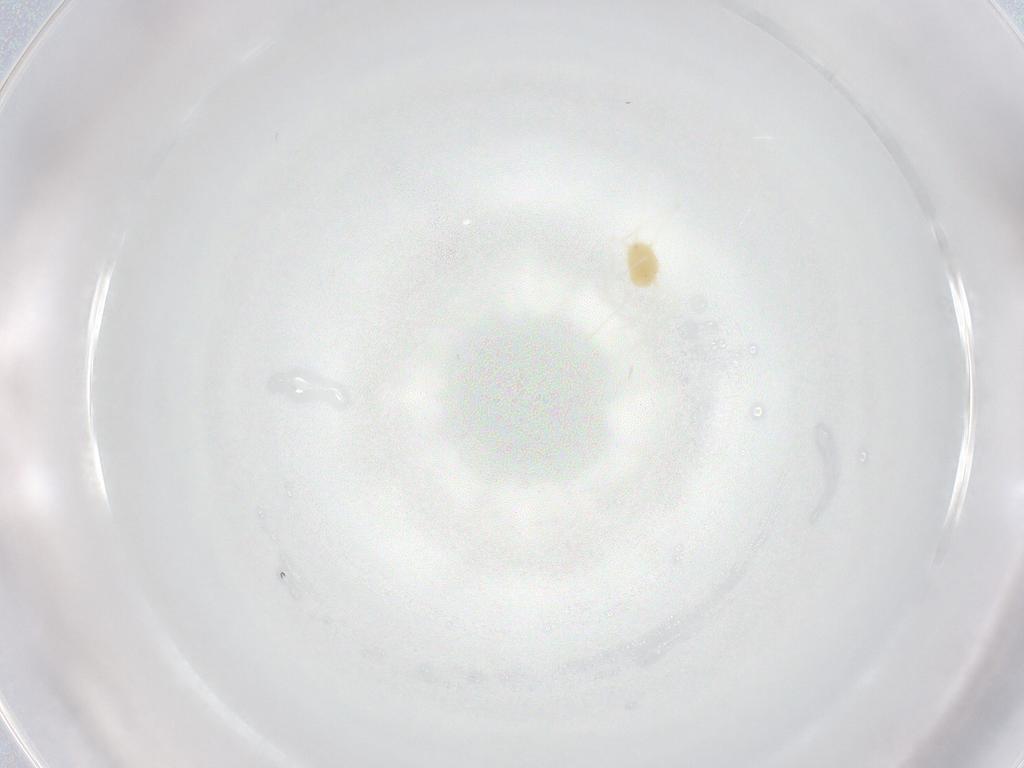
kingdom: Animalia
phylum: Arthropoda
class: Arachnida
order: Trombidiformes
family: Tetranychidae
